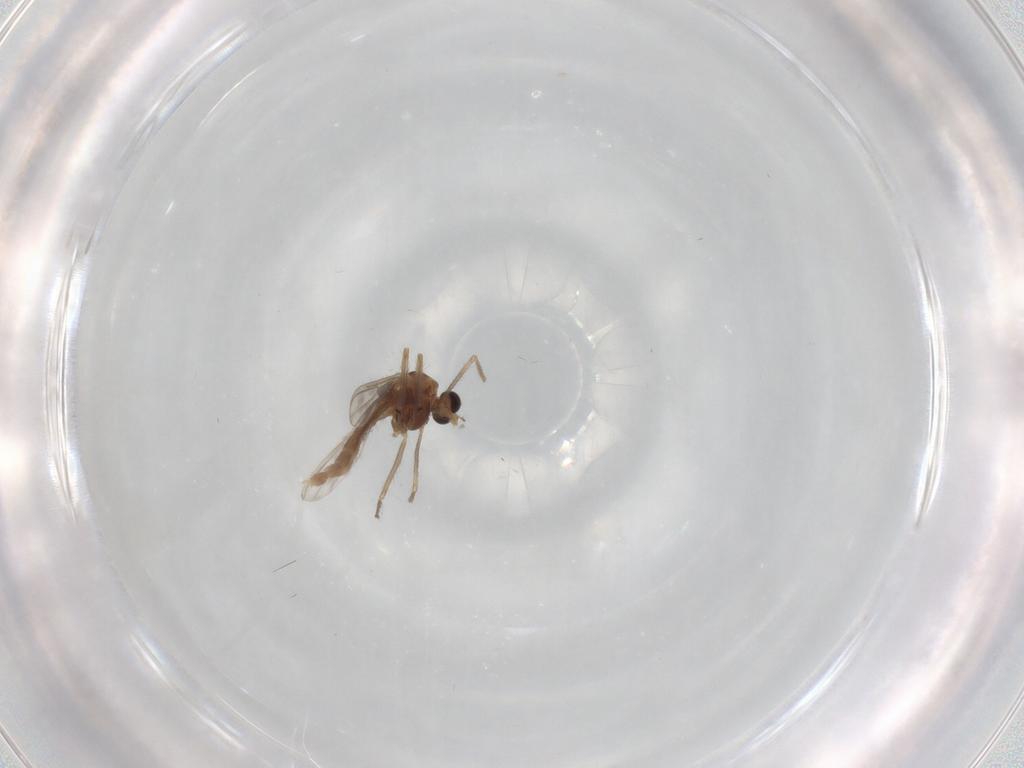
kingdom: Animalia
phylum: Arthropoda
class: Insecta
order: Diptera
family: Chironomidae
